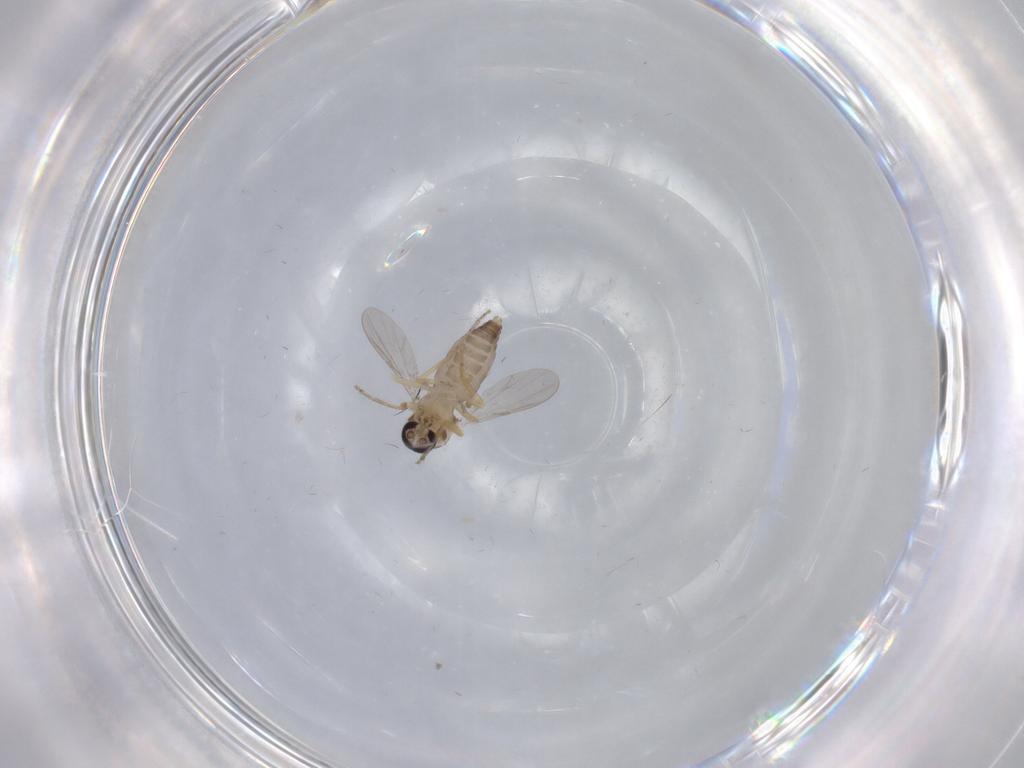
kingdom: Animalia
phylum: Arthropoda
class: Insecta
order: Diptera
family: Ceratopogonidae
